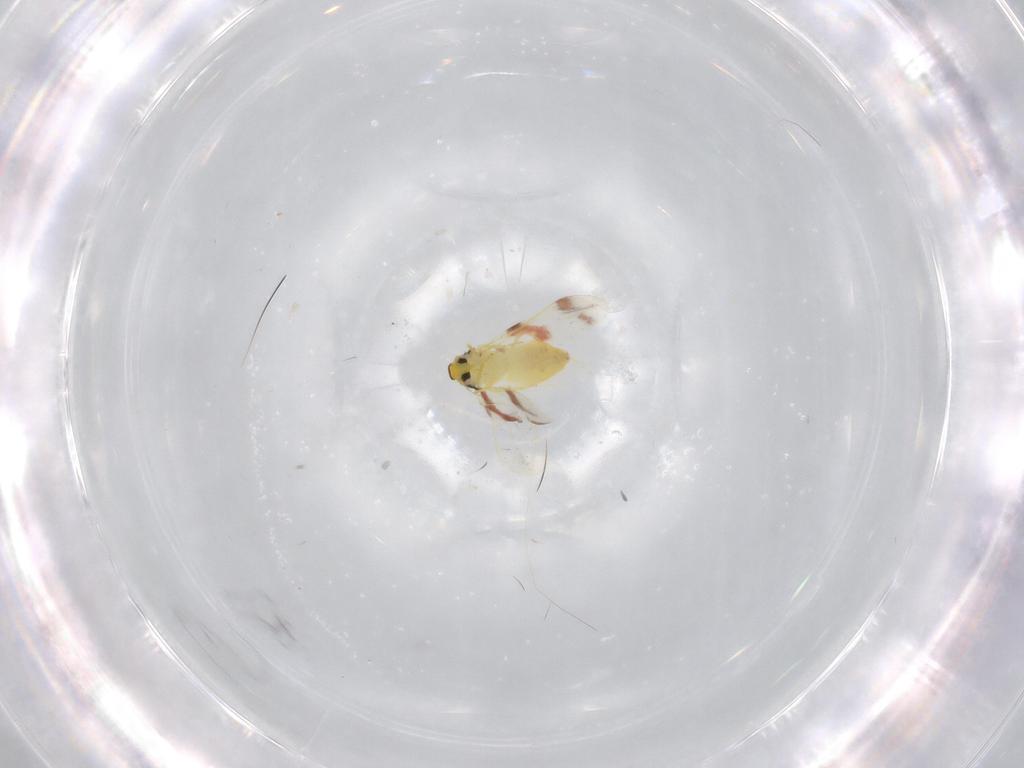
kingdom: Animalia
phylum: Arthropoda
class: Insecta
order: Hemiptera
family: Aleyrodidae
